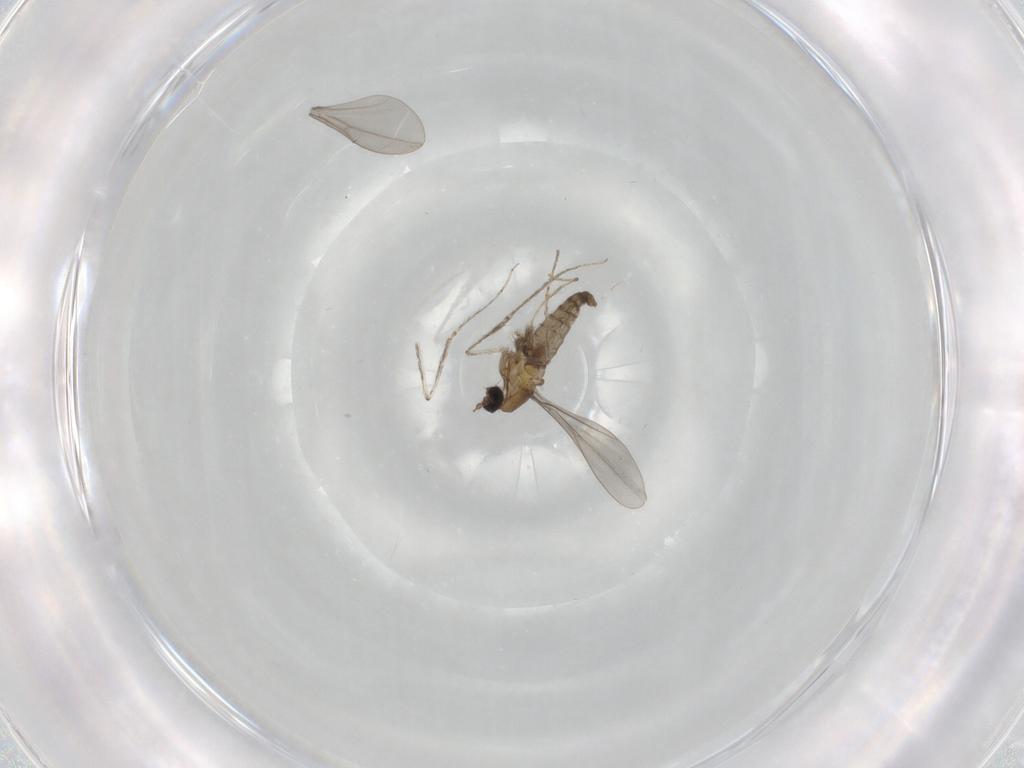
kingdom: Animalia
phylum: Arthropoda
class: Insecta
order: Diptera
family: Cecidomyiidae
